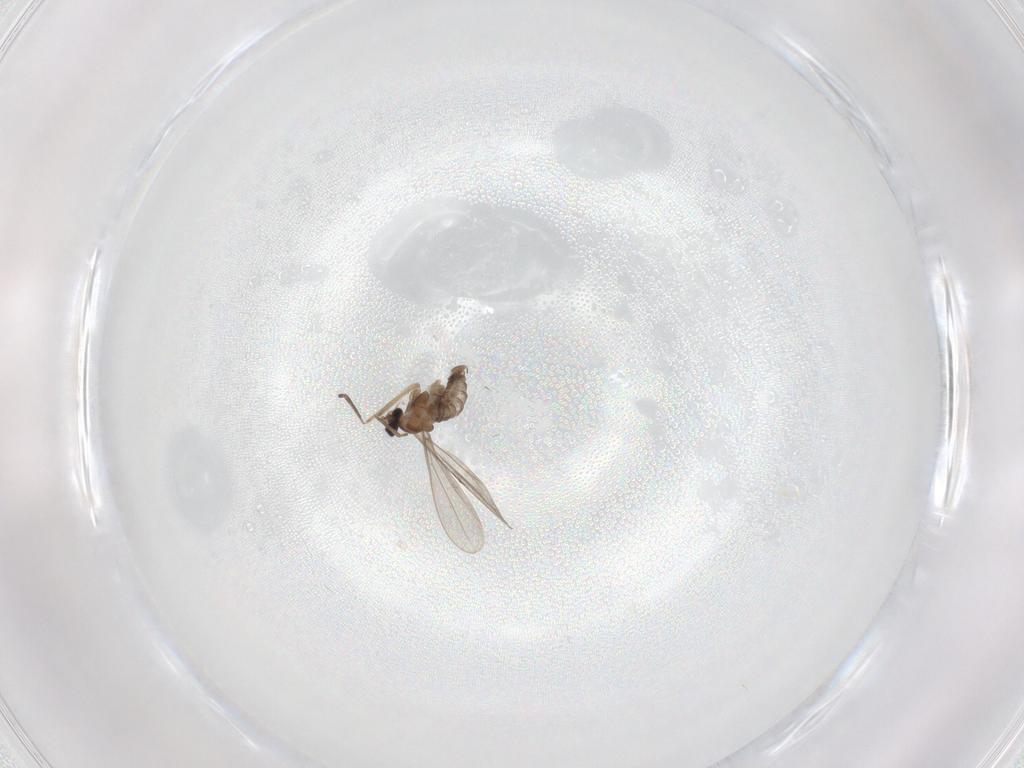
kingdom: Animalia
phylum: Arthropoda
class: Insecta
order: Diptera
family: Cecidomyiidae
